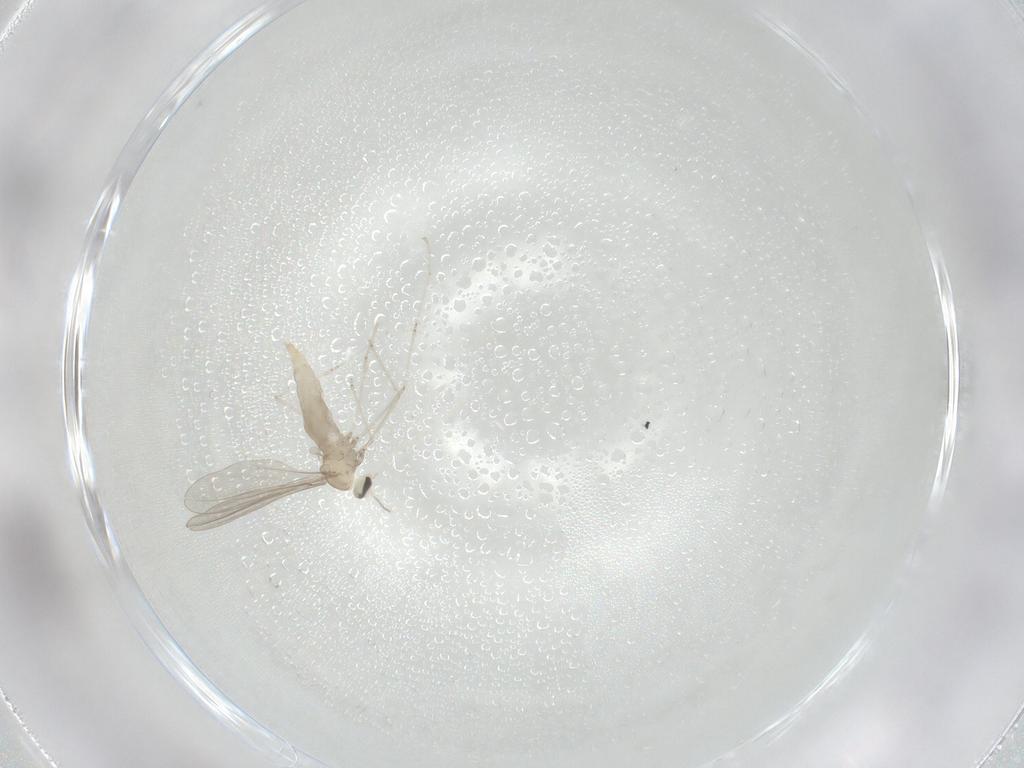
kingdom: Animalia
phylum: Arthropoda
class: Insecta
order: Diptera
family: Cecidomyiidae
